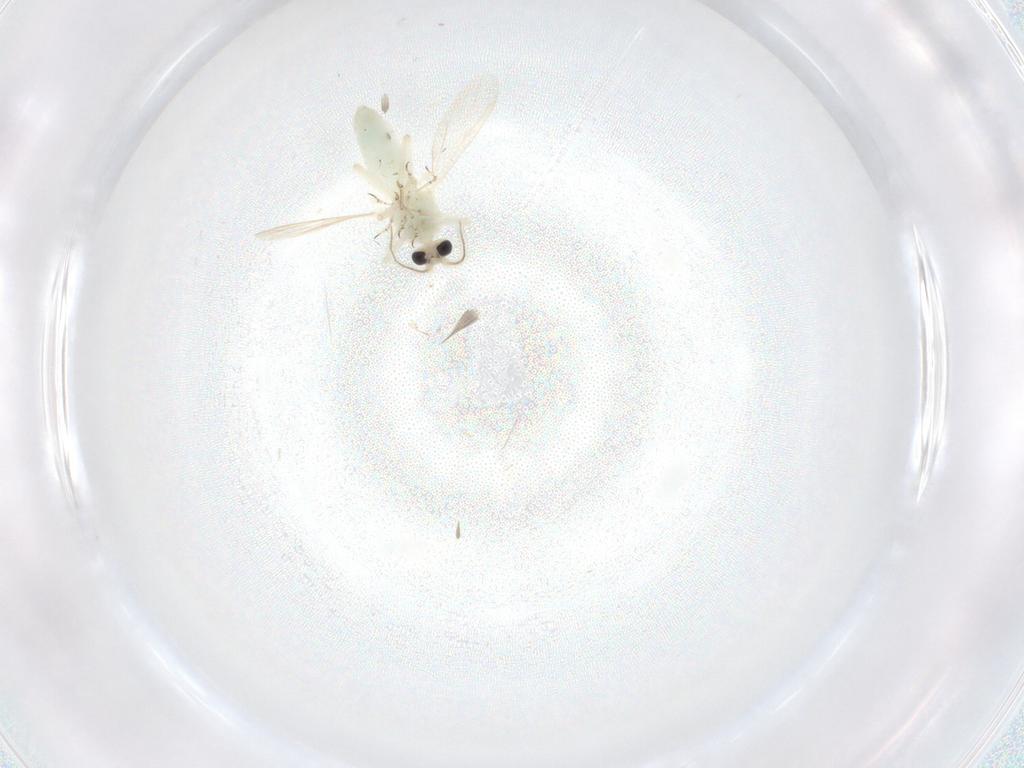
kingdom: Animalia
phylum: Arthropoda
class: Insecta
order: Diptera
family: Ceratopogonidae
